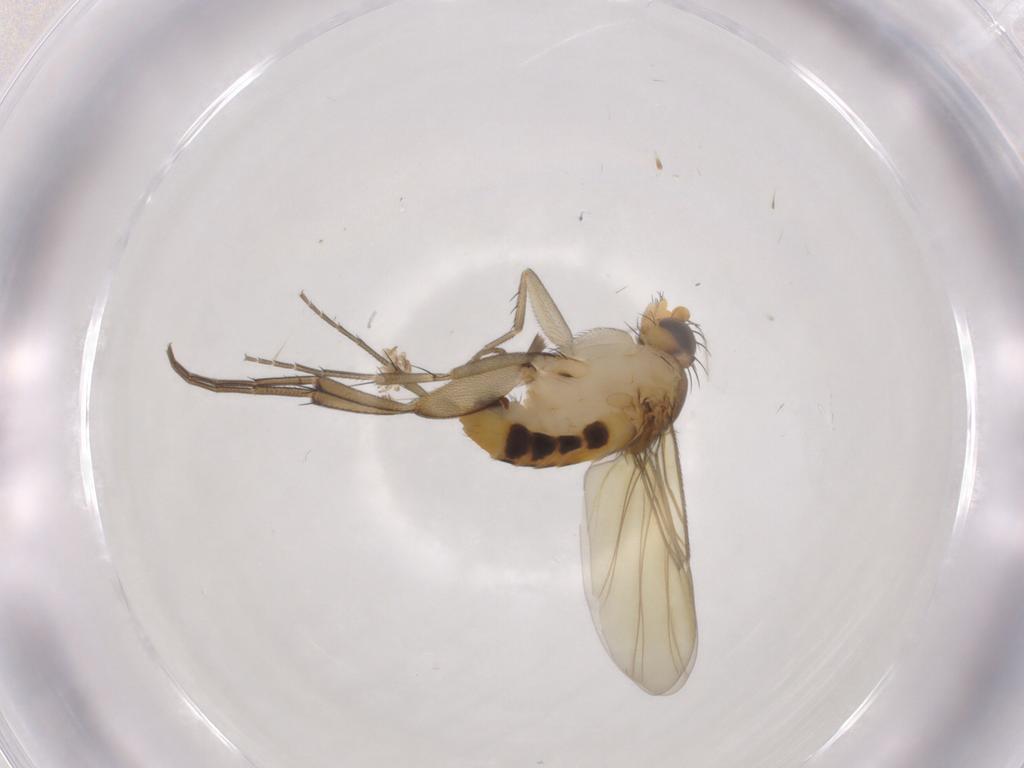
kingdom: Animalia
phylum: Arthropoda
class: Insecta
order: Diptera
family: Phoridae
